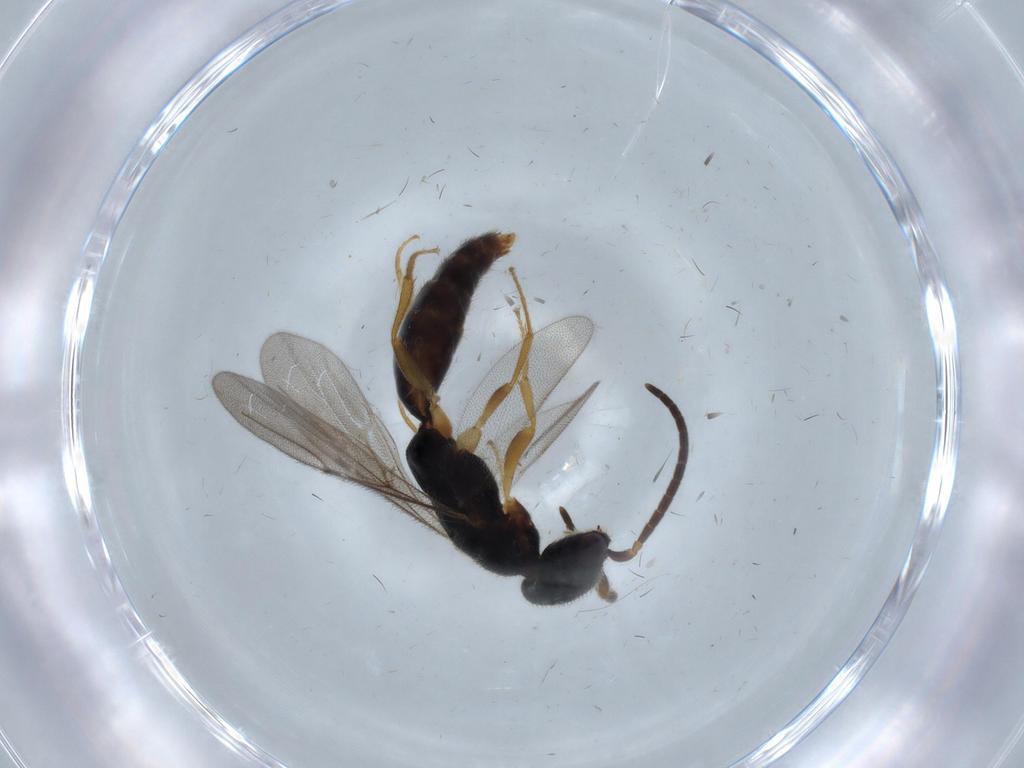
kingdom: Animalia
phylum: Arthropoda
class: Insecta
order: Hymenoptera
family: Bethylidae
